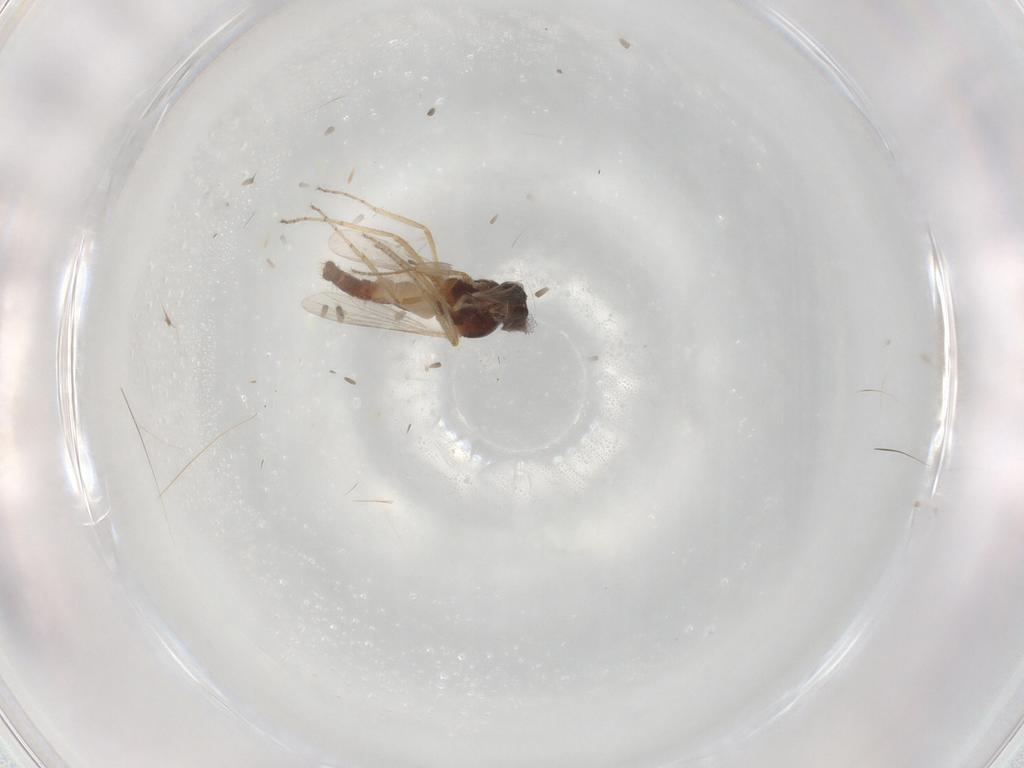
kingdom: Animalia
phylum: Arthropoda
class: Insecta
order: Diptera
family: Ceratopogonidae
